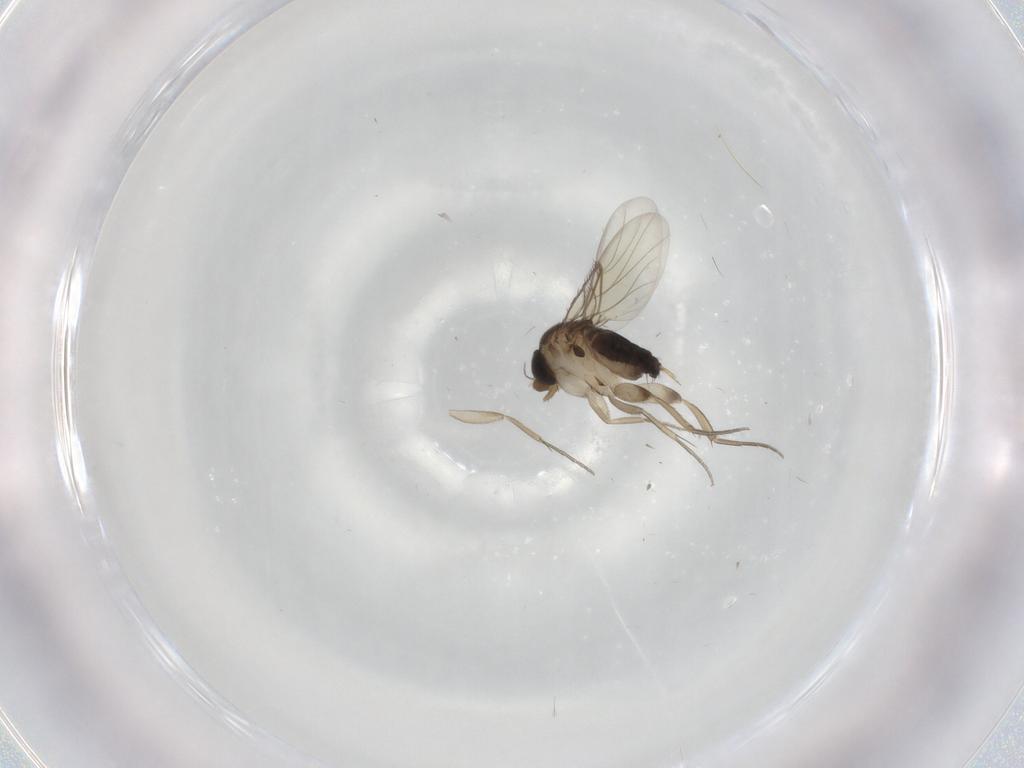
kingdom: Animalia
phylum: Arthropoda
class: Insecta
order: Diptera
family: Phoridae
